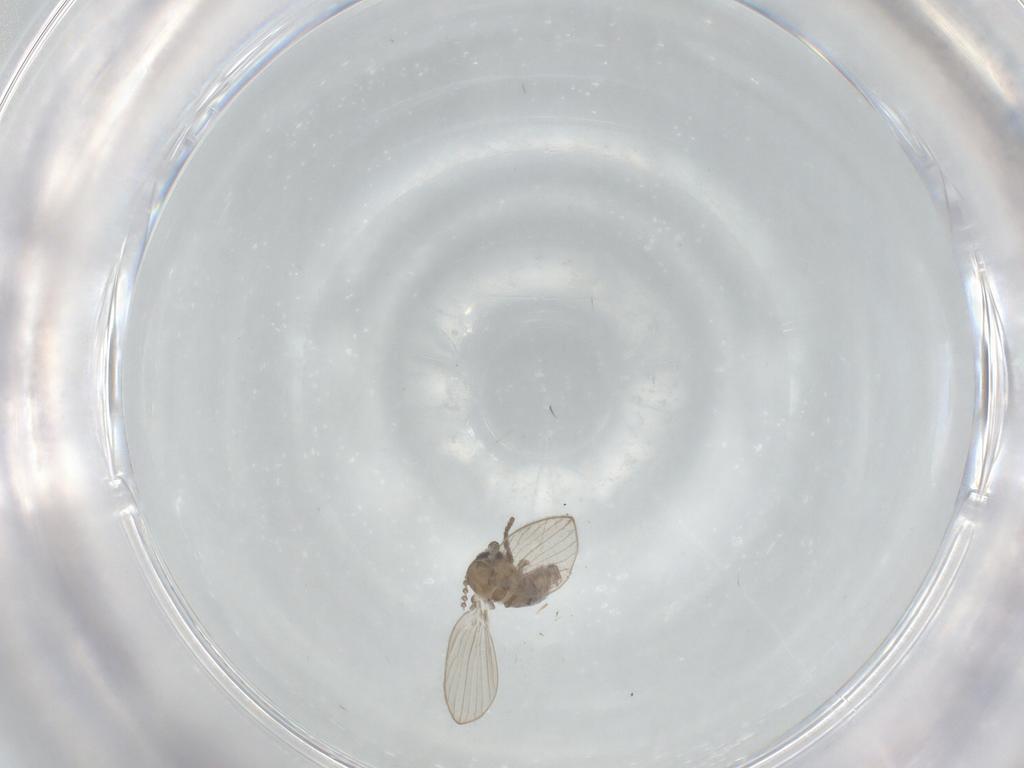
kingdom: Animalia
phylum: Arthropoda
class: Insecta
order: Diptera
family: Psychodidae
